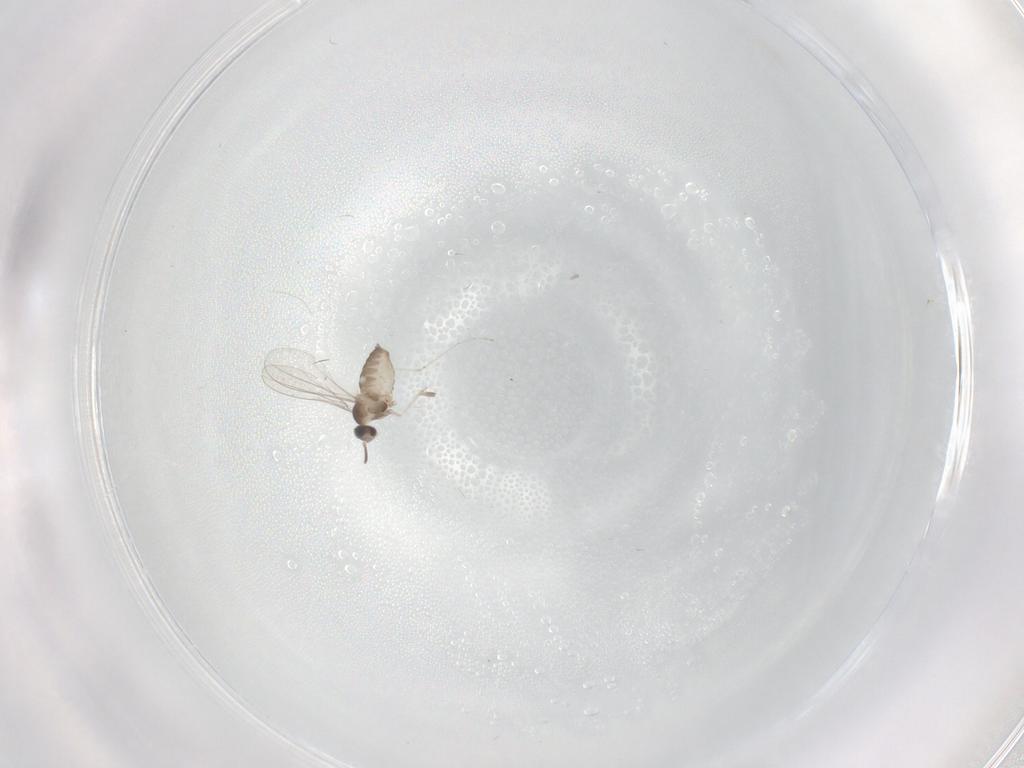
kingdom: Animalia
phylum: Arthropoda
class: Insecta
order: Diptera
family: Cecidomyiidae
